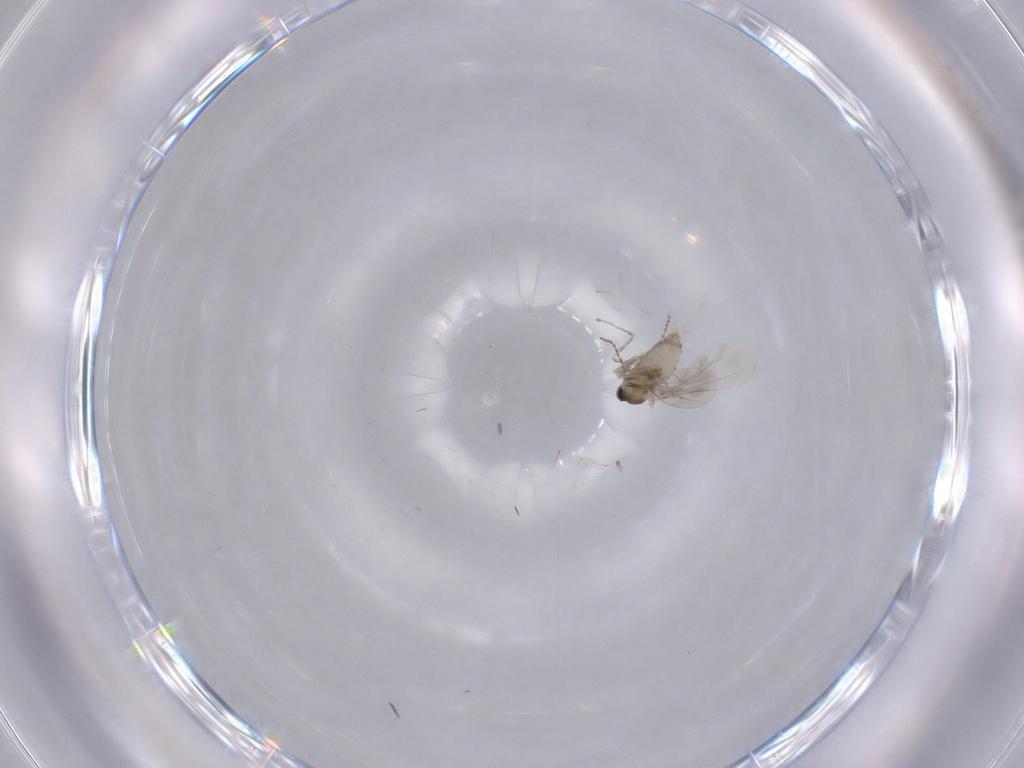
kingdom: Animalia
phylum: Arthropoda
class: Insecta
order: Diptera
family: Cecidomyiidae
